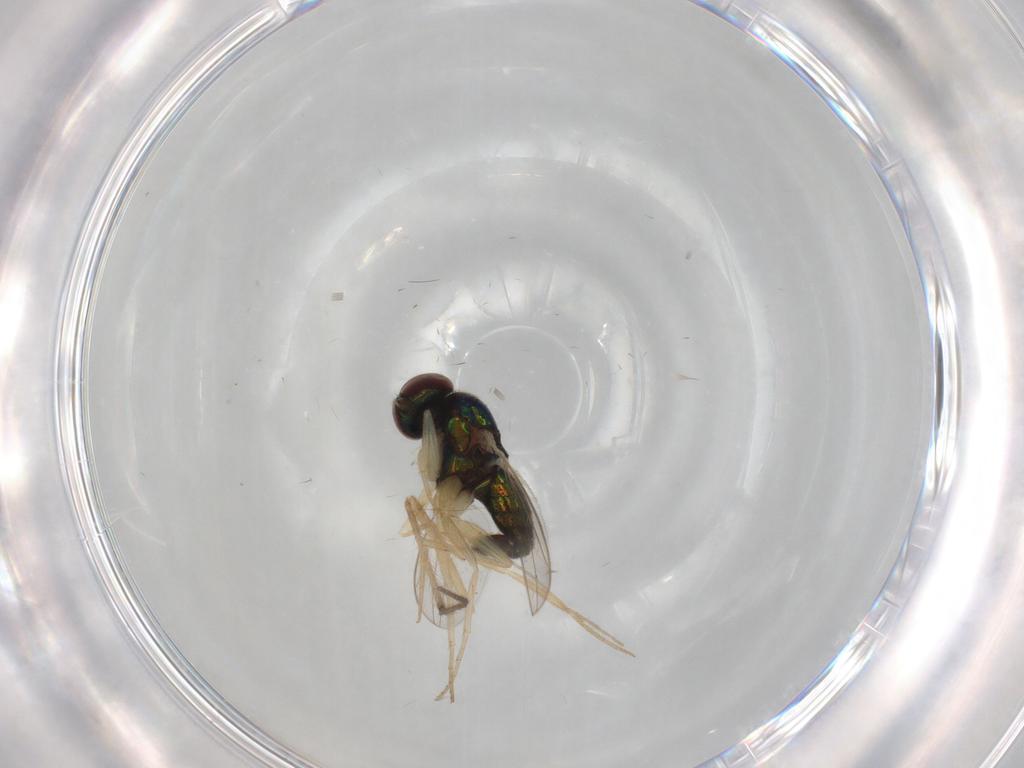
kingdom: Animalia
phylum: Arthropoda
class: Insecta
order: Diptera
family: Dolichopodidae
